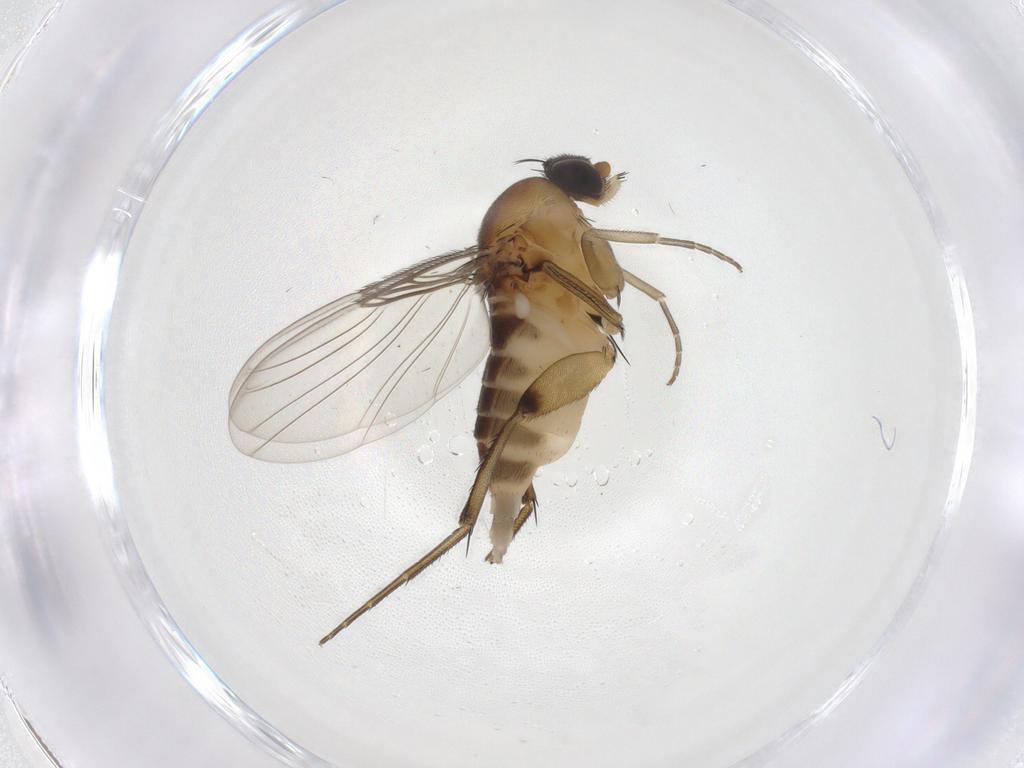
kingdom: Animalia
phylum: Arthropoda
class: Insecta
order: Diptera
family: Phoridae
